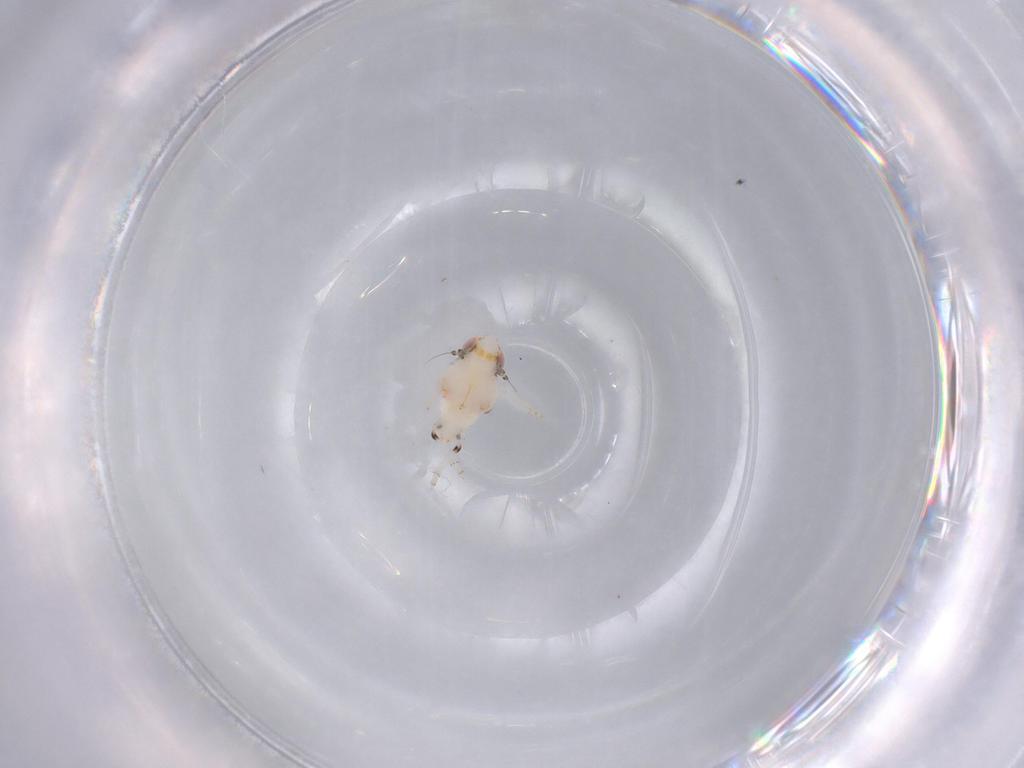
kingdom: Animalia
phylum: Arthropoda
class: Insecta
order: Hemiptera
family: Nogodinidae
